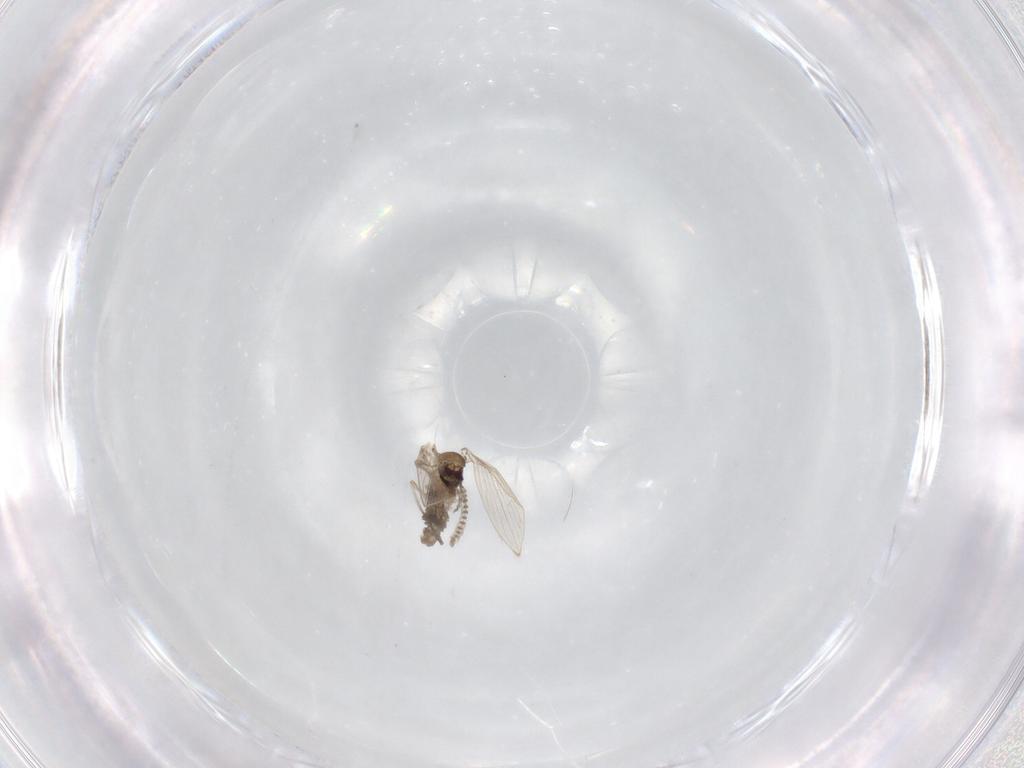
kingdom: Animalia
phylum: Arthropoda
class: Insecta
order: Diptera
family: Psychodidae
